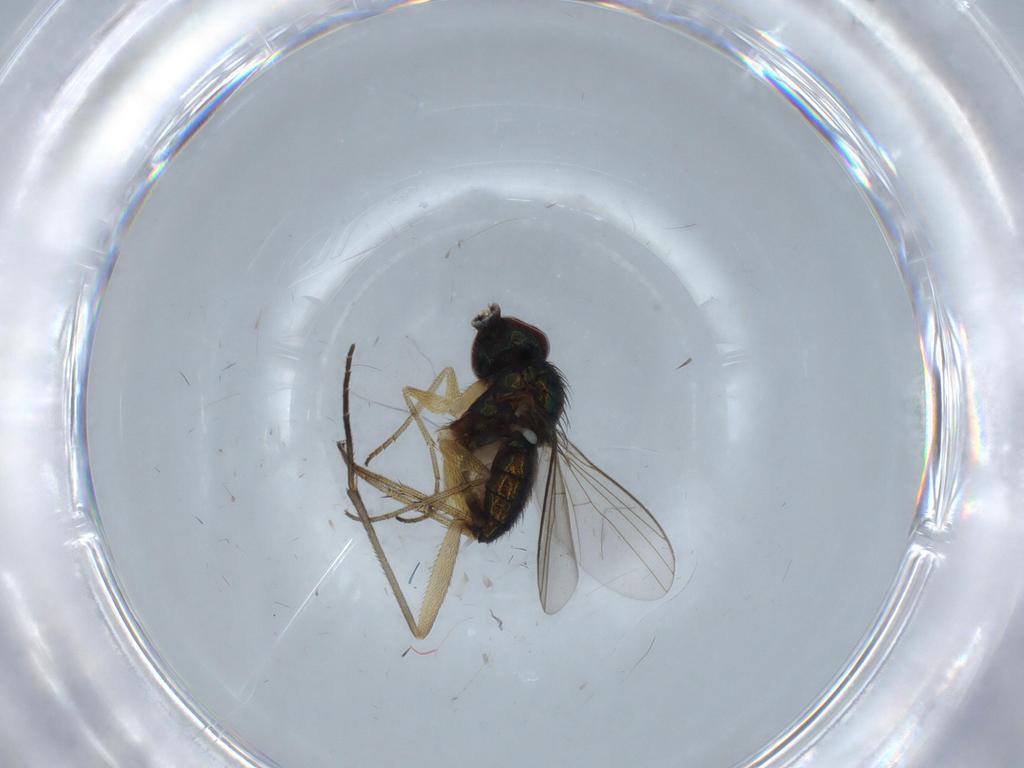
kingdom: Animalia
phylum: Arthropoda
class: Insecta
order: Diptera
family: Dolichopodidae
